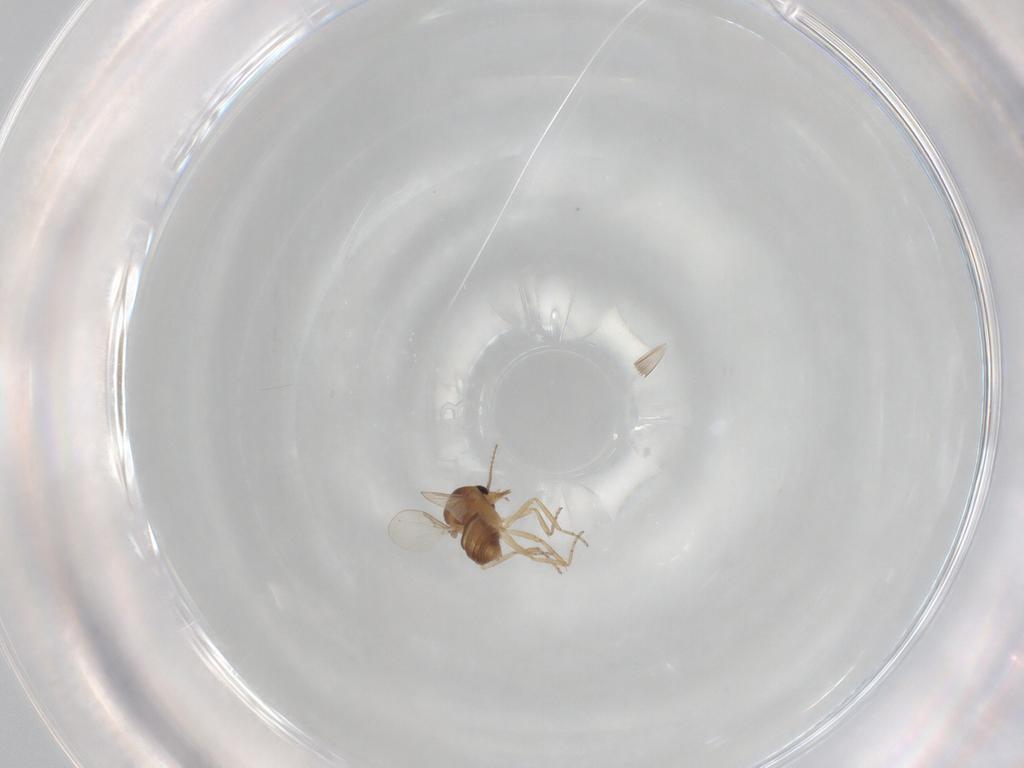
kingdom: Animalia
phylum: Arthropoda
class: Insecta
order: Diptera
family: Ceratopogonidae
